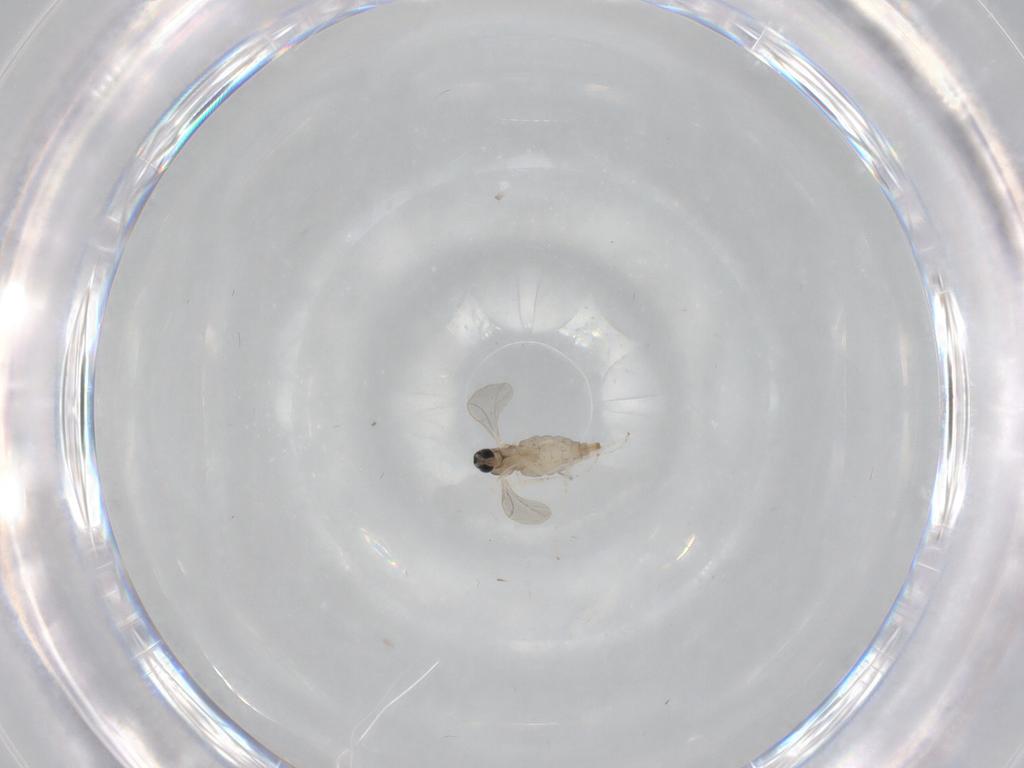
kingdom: Animalia
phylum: Arthropoda
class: Insecta
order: Diptera
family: Cecidomyiidae
